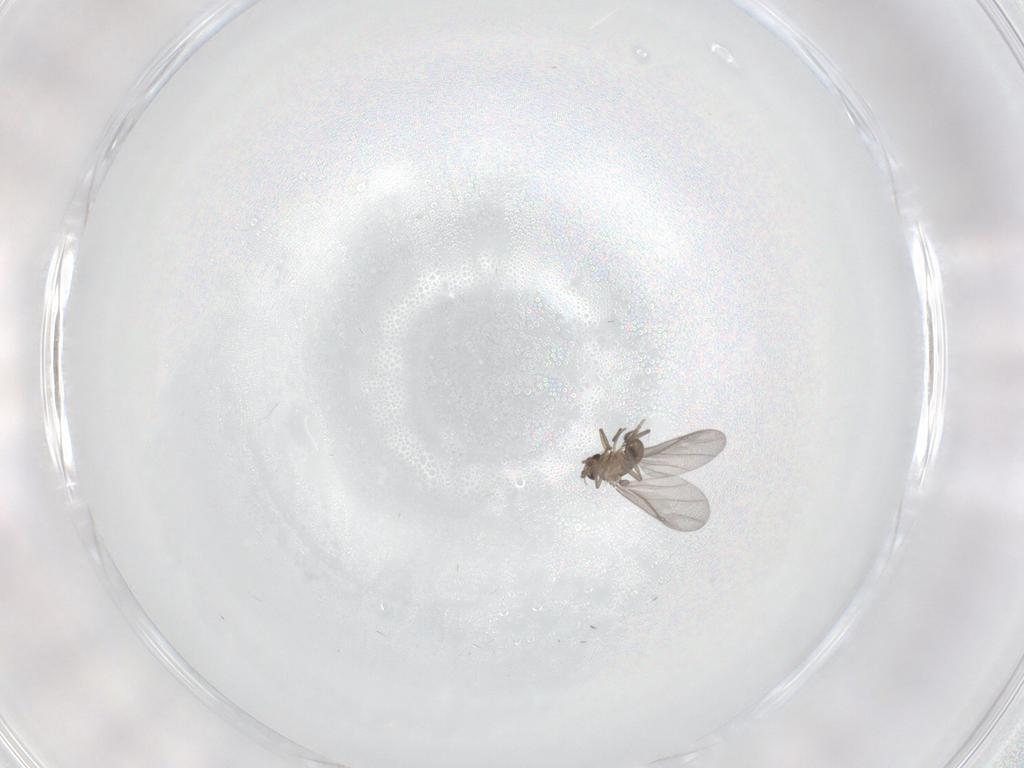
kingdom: Animalia
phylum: Arthropoda
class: Insecta
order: Diptera
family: Phoridae
